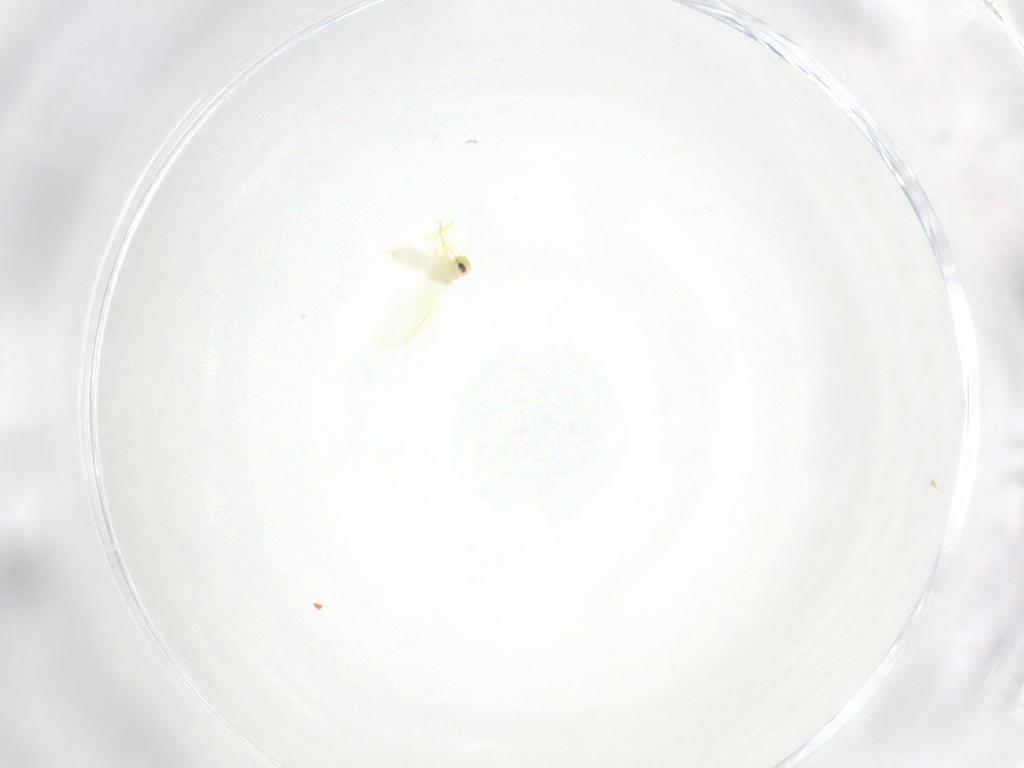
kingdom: Animalia
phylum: Arthropoda
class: Insecta
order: Hemiptera
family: Aleyrodidae
